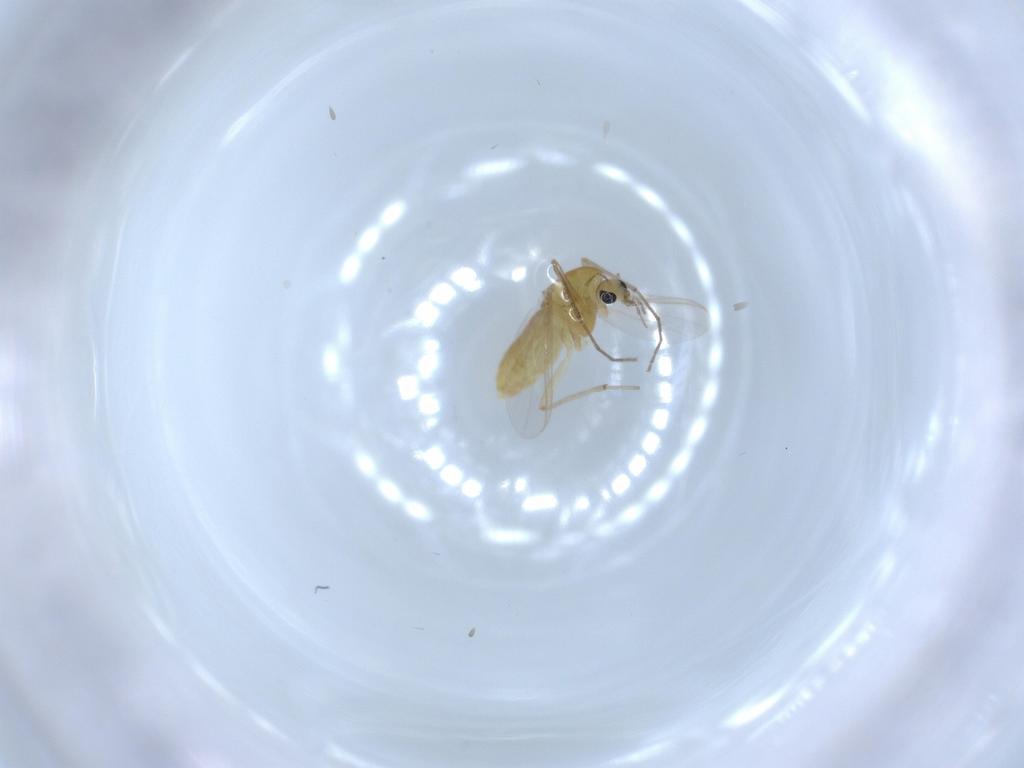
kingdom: Animalia
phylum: Arthropoda
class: Insecta
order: Diptera
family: Chironomidae
